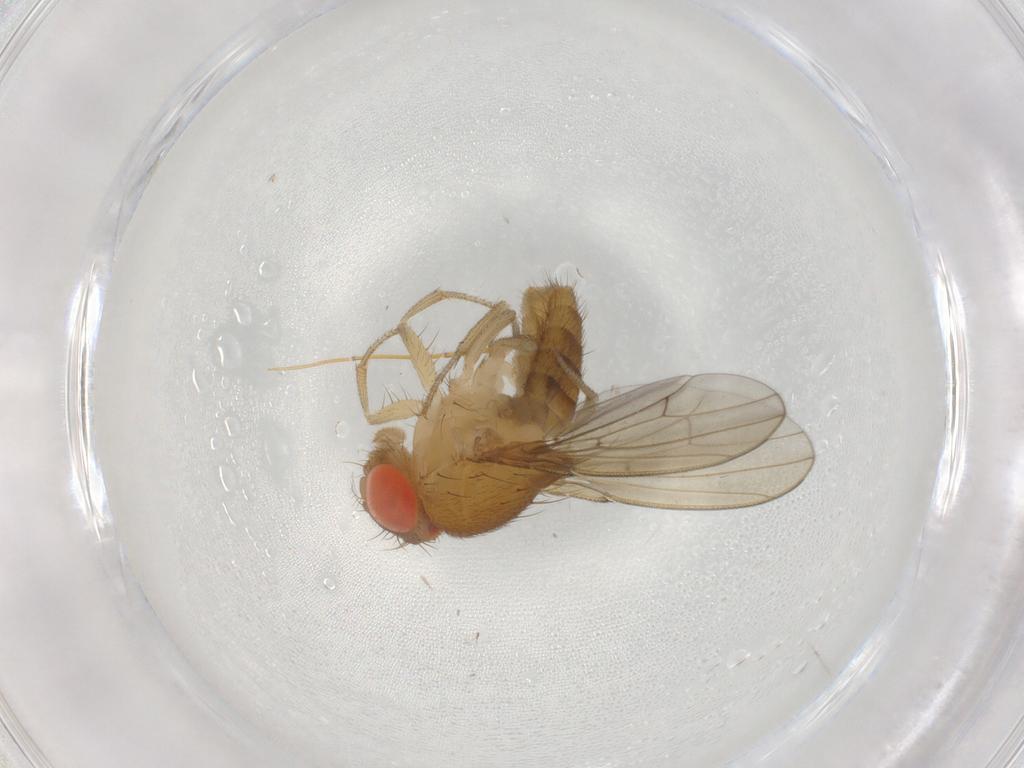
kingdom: Animalia
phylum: Arthropoda
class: Insecta
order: Diptera
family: Drosophilidae
